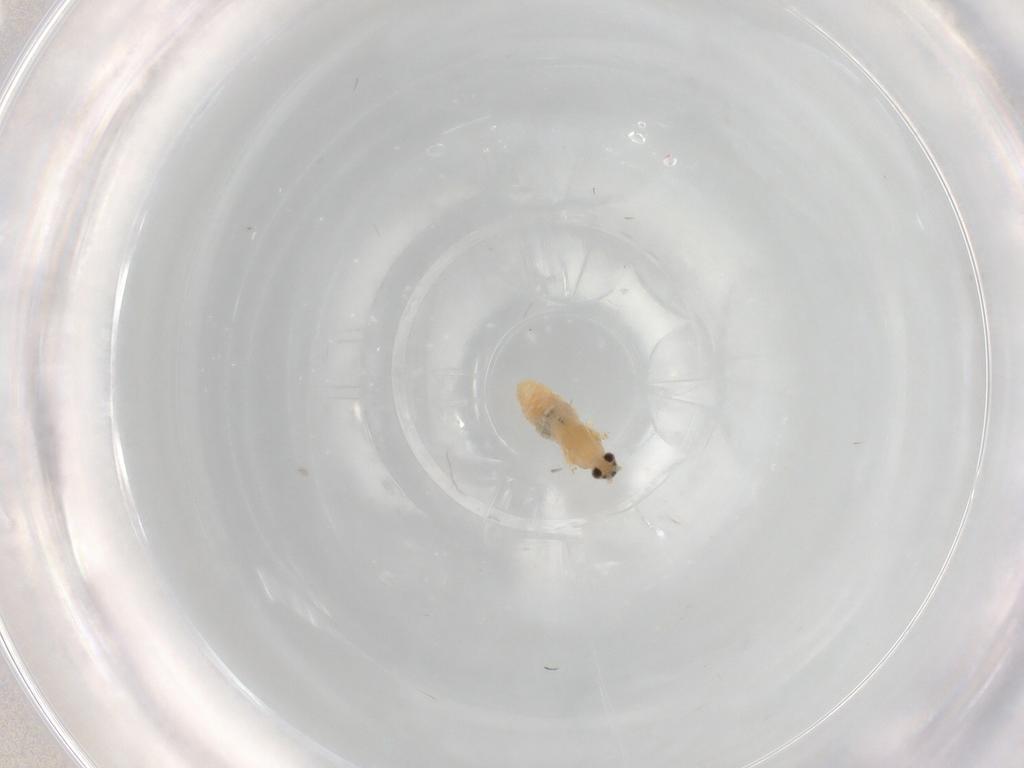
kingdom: Animalia
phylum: Arthropoda
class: Insecta
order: Diptera
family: Cecidomyiidae
